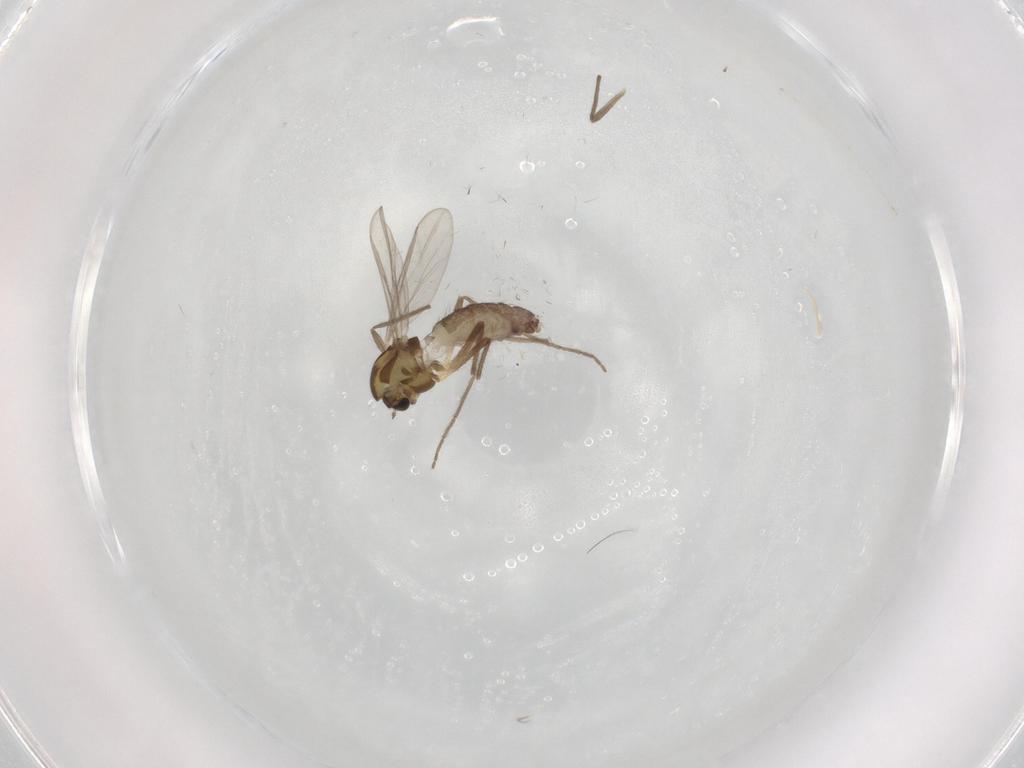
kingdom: Animalia
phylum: Arthropoda
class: Insecta
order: Diptera
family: Chironomidae
